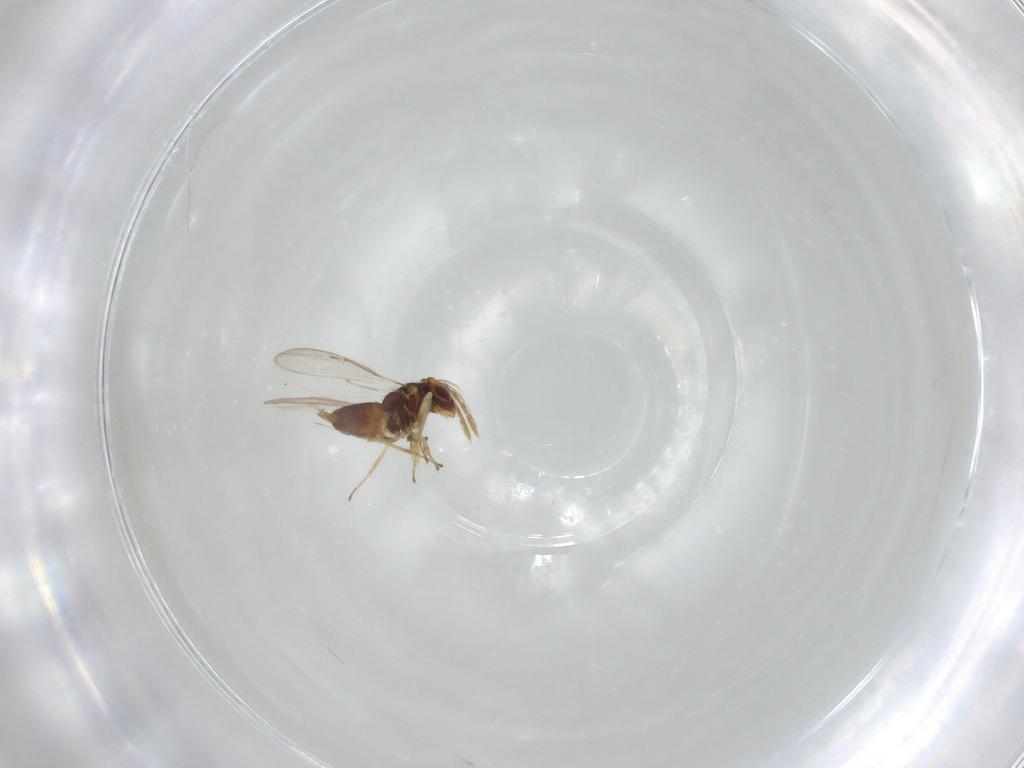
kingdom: Animalia
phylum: Arthropoda
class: Insecta
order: Hymenoptera
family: Eulophidae
